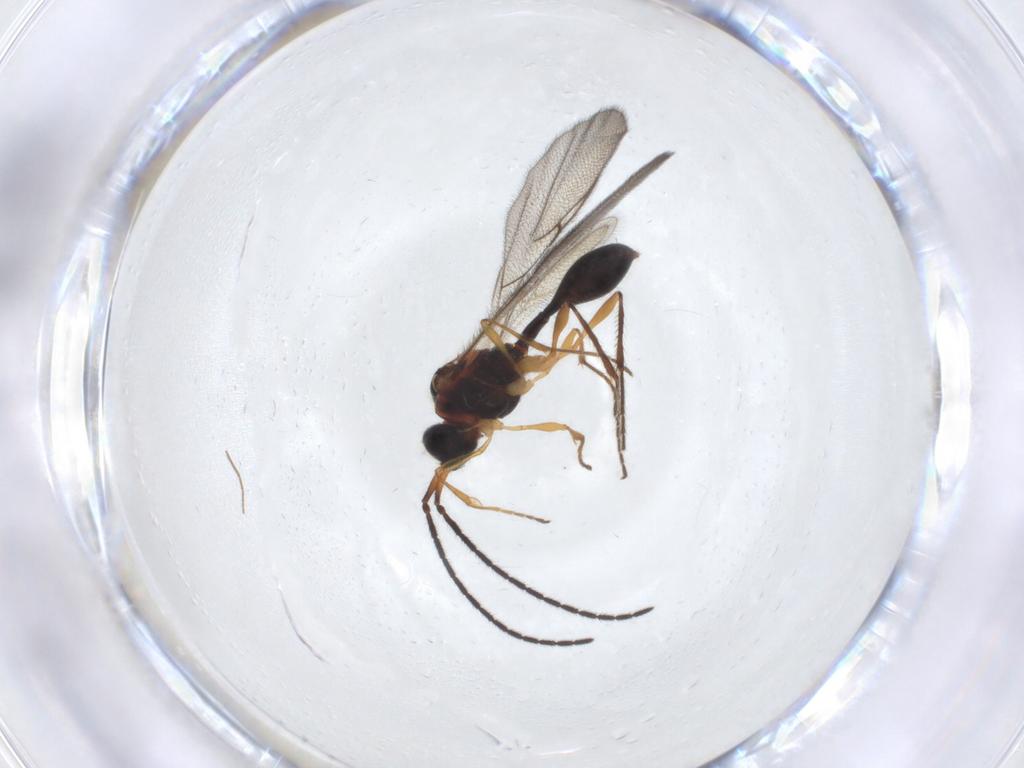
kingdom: Animalia
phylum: Arthropoda
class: Insecta
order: Hymenoptera
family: Diapriidae
